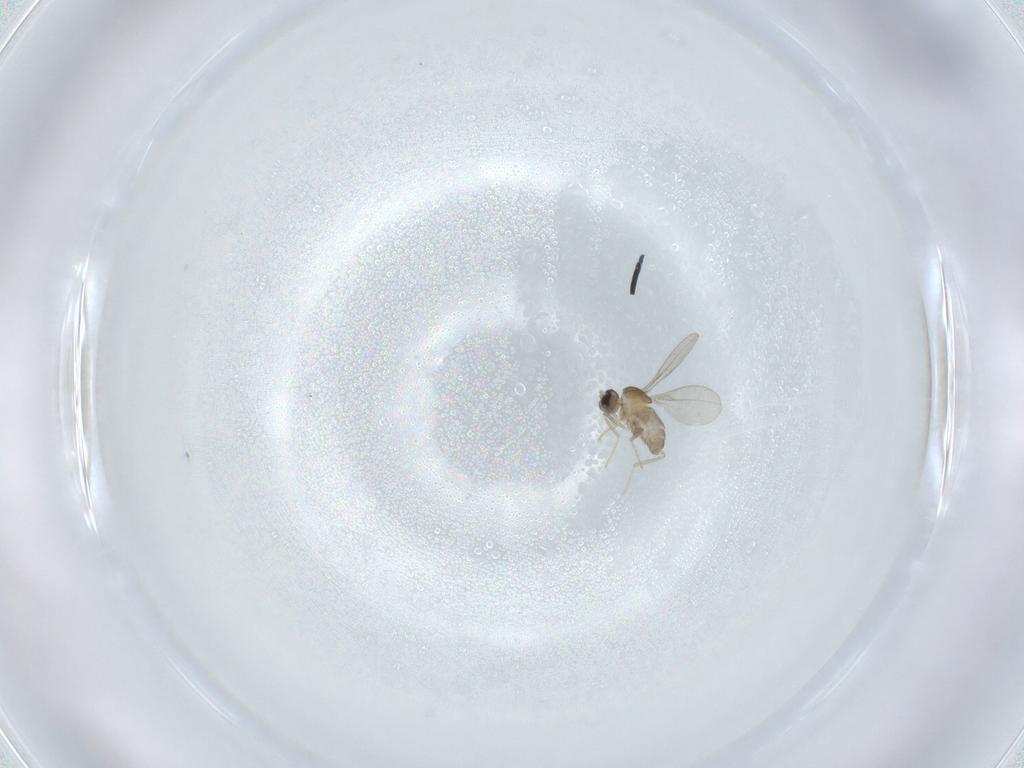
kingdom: Animalia
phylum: Arthropoda
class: Insecta
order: Diptera
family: Cecidomyiidae
